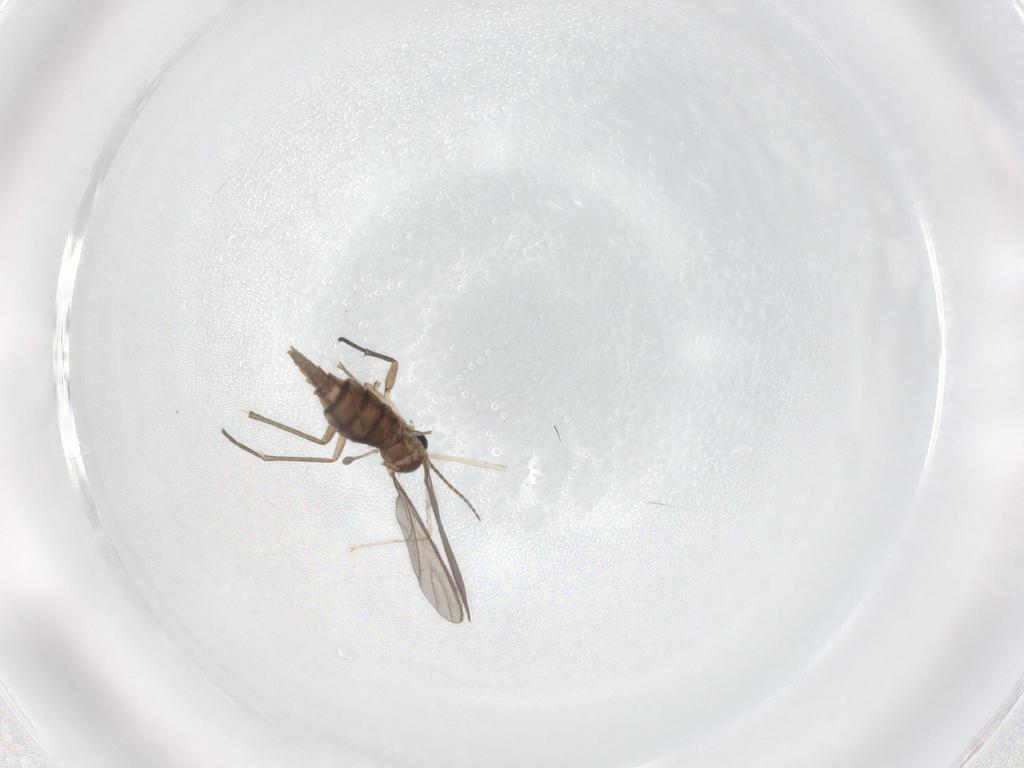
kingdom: Animalia
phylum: Arthropoda
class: Insecta
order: Diptera
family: Sciaridae
